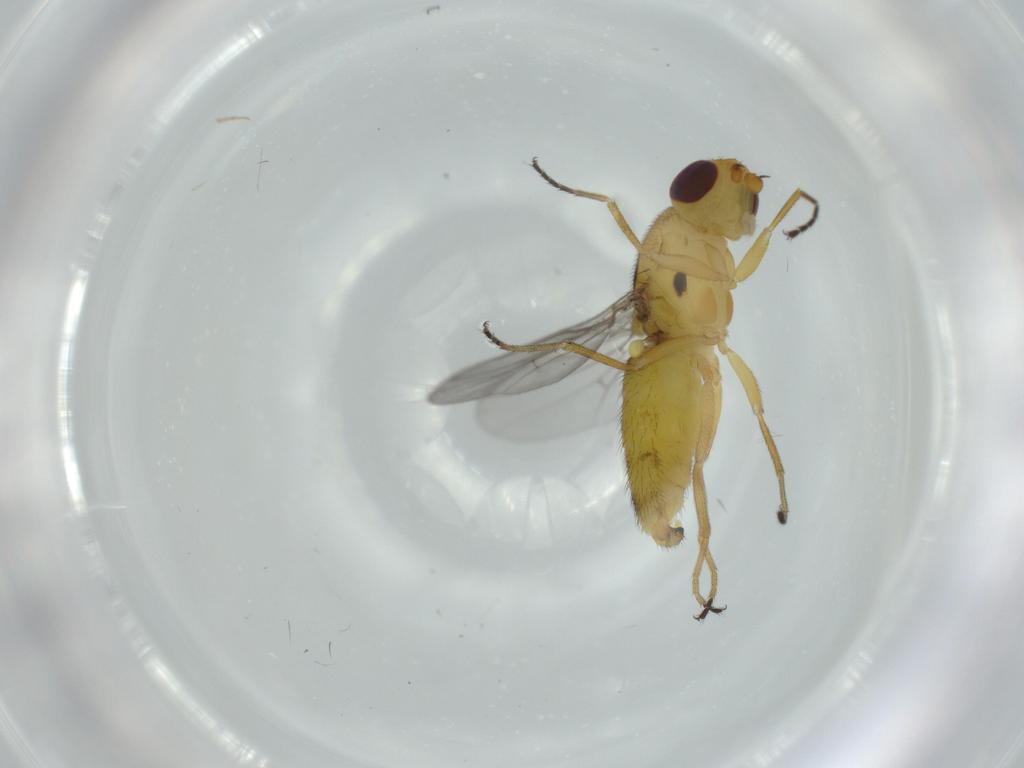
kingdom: Animalia
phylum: Arthropoda
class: Insecta
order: Diptera
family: Chloropidae
